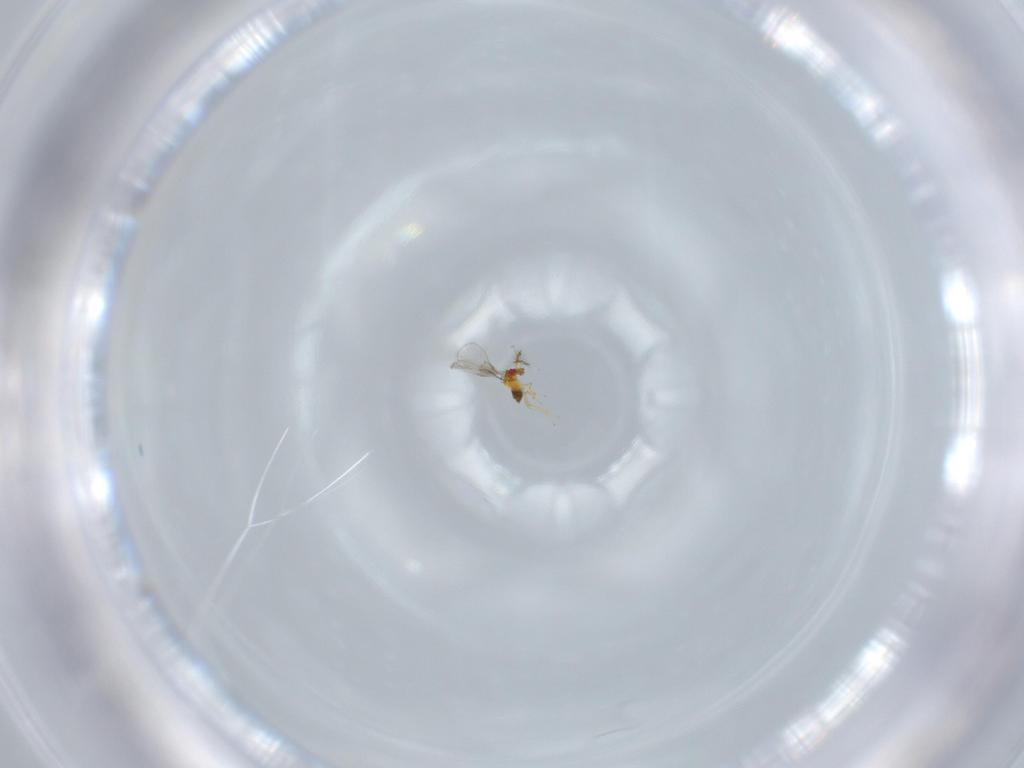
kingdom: Animalia
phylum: Arthropoda
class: Insecta
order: Hymenoptera
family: Trichogrammatidae
